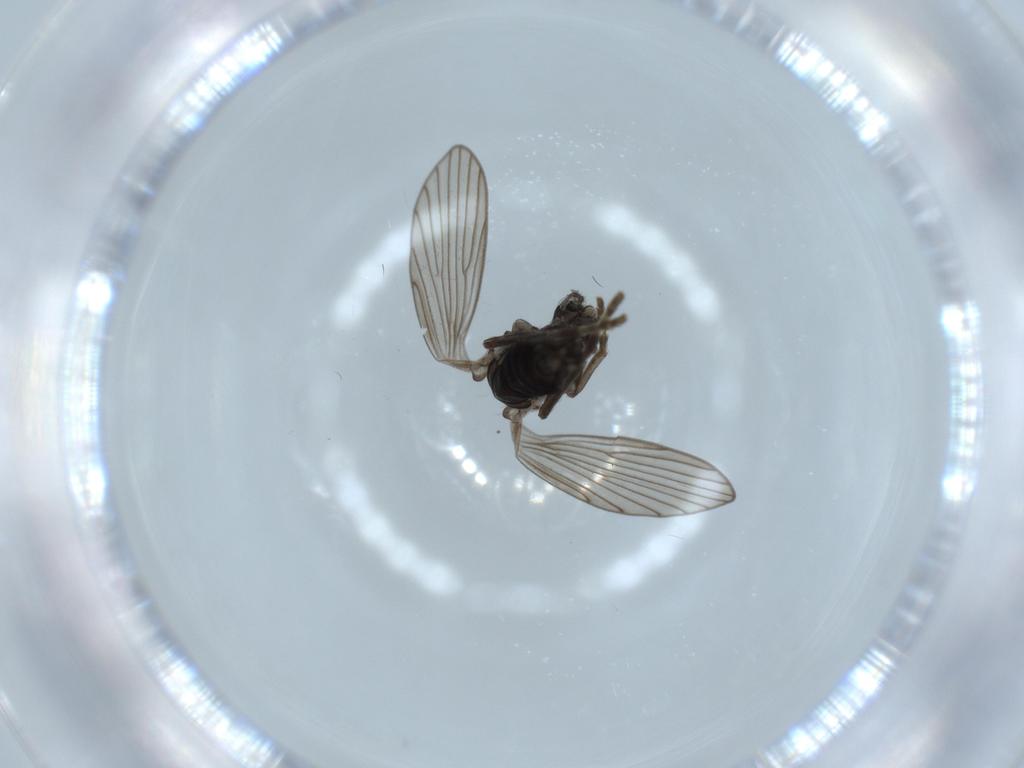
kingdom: Animalia
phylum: Arthropoda
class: Insecta
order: Diptera
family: Psychodidae
